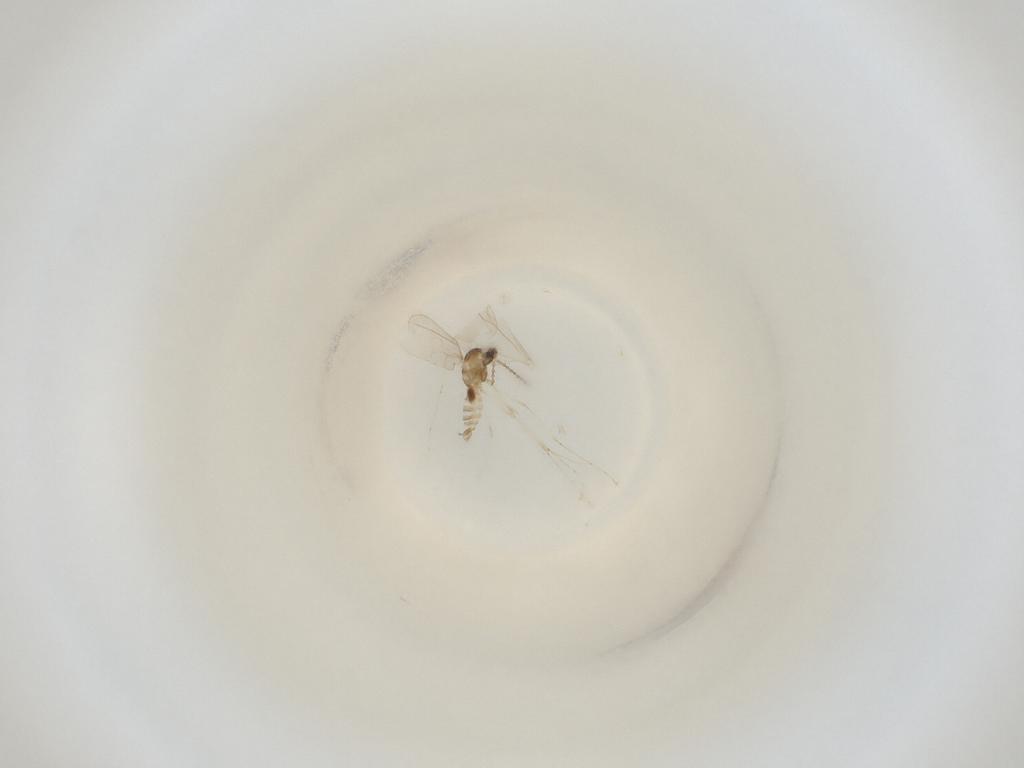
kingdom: Animalia
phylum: Arthropoda
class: Insecta
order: Diptera
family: Cecidomyiidae
